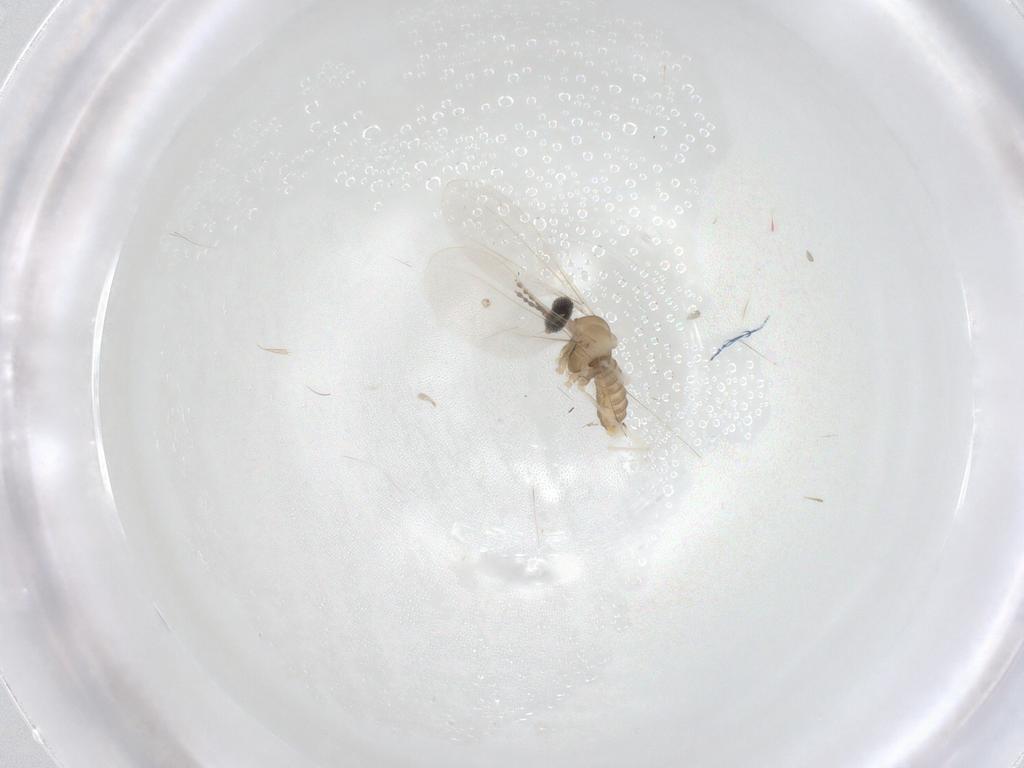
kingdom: Animalia
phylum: Arthropoda
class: Insecta
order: Diptera
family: Cecidomyiidae
